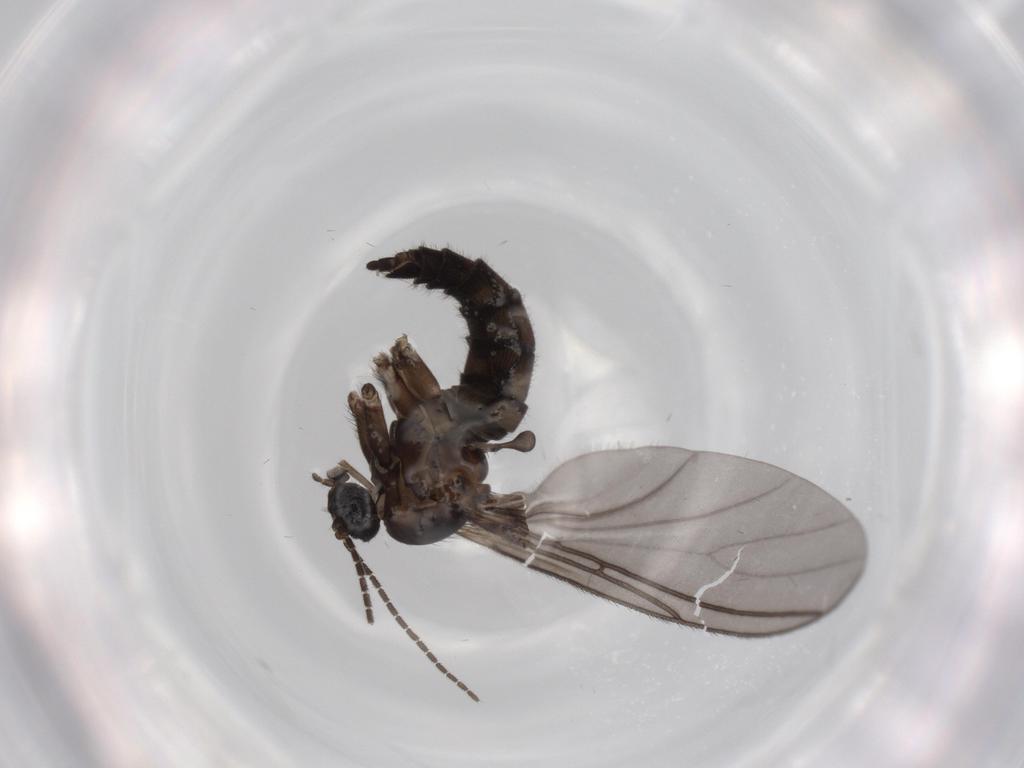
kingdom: Animalia
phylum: Arthropoda
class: Insecta
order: Diptera
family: Sciaridae
